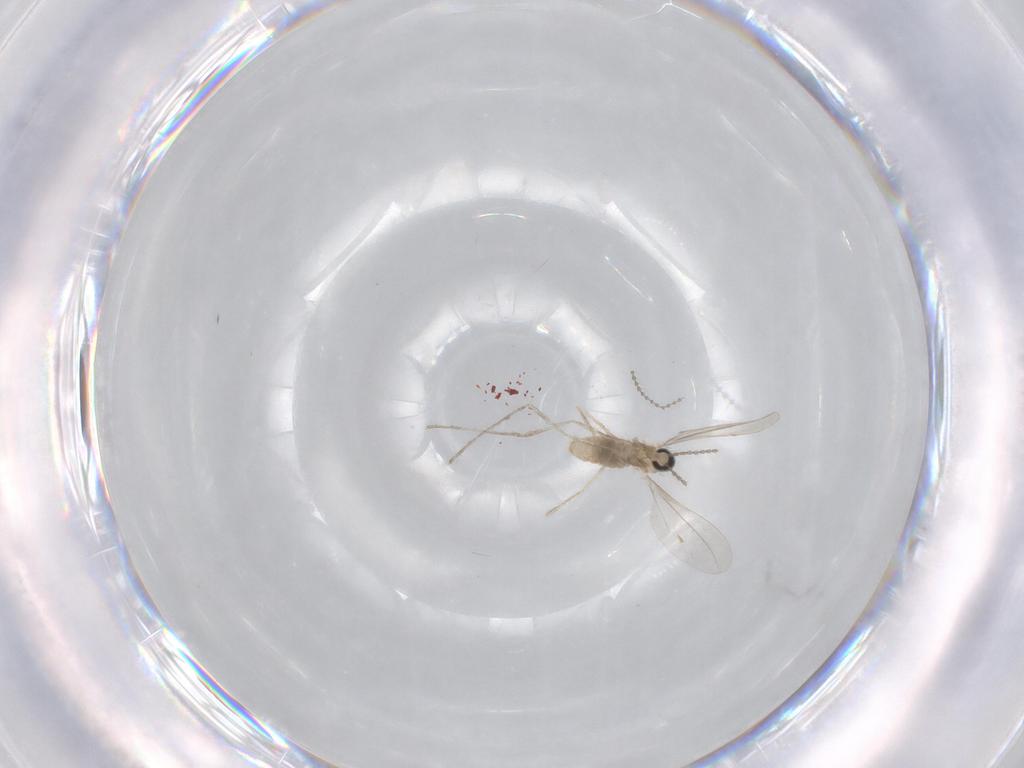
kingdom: Animalia
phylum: Arthropoda
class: Insecta
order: Diptera
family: Cecidomyiidae
